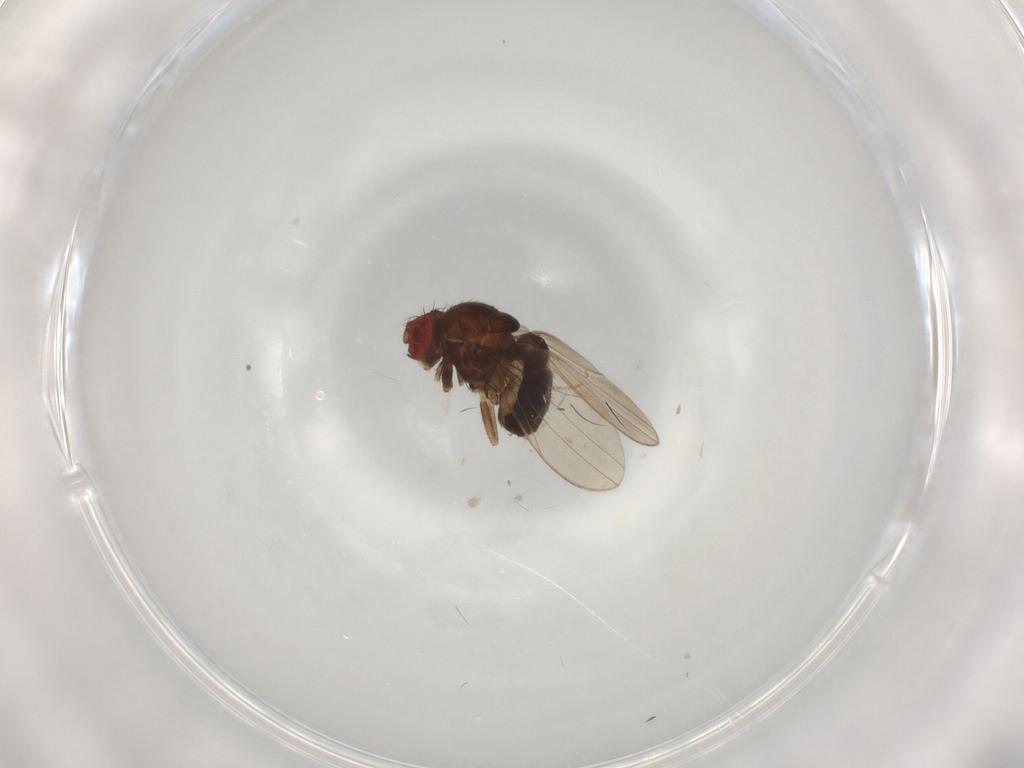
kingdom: Animalia
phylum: Arthropoda
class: Insecta
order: Diptera
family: Drosophilidae
